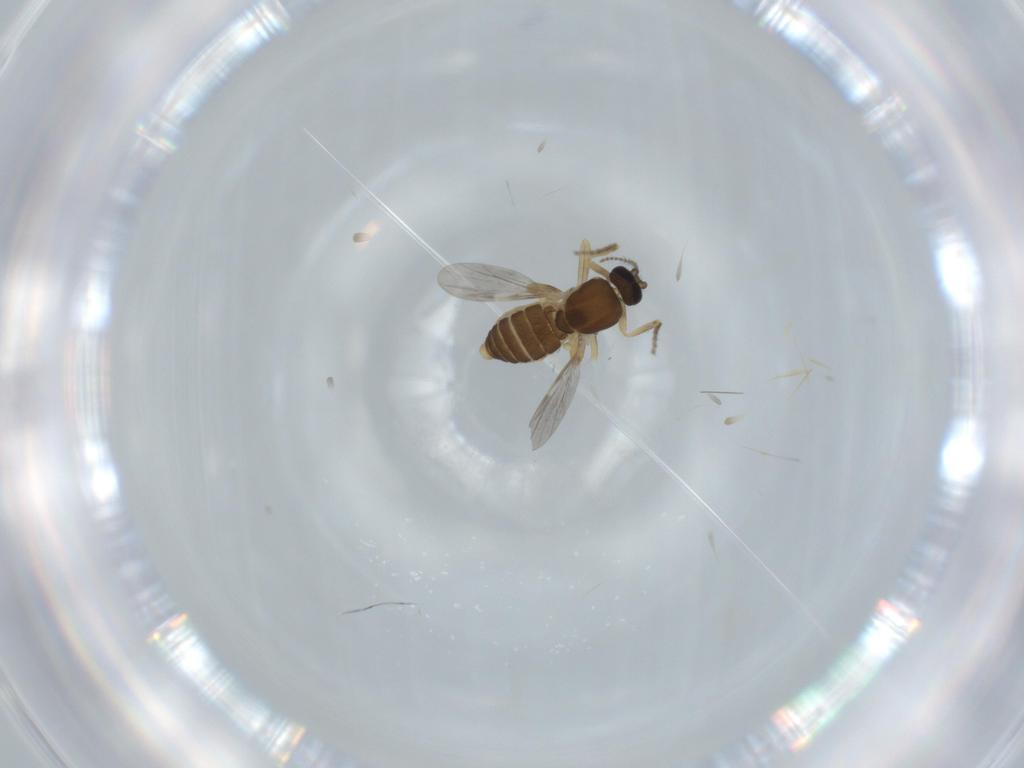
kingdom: Animalia
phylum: Arthropoda
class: Insecta
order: Diptera
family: Ceratopogonidae
